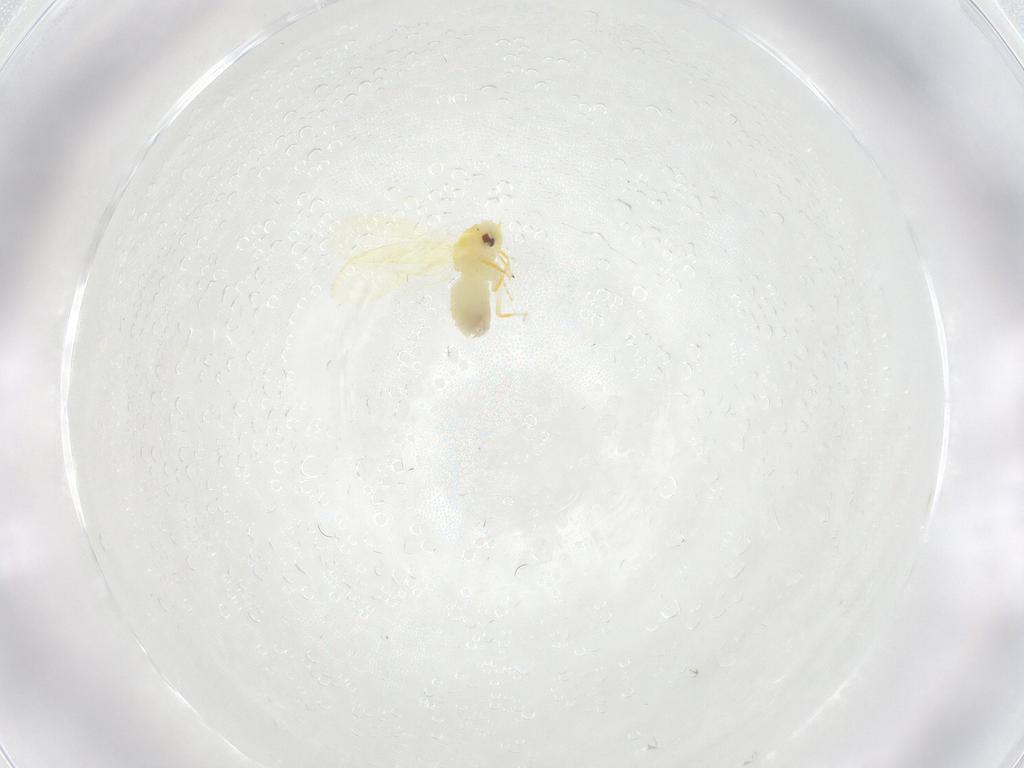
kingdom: Animalia
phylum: Arthropoda
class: Insecta
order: Hemiptera
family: Aleyrodidae
